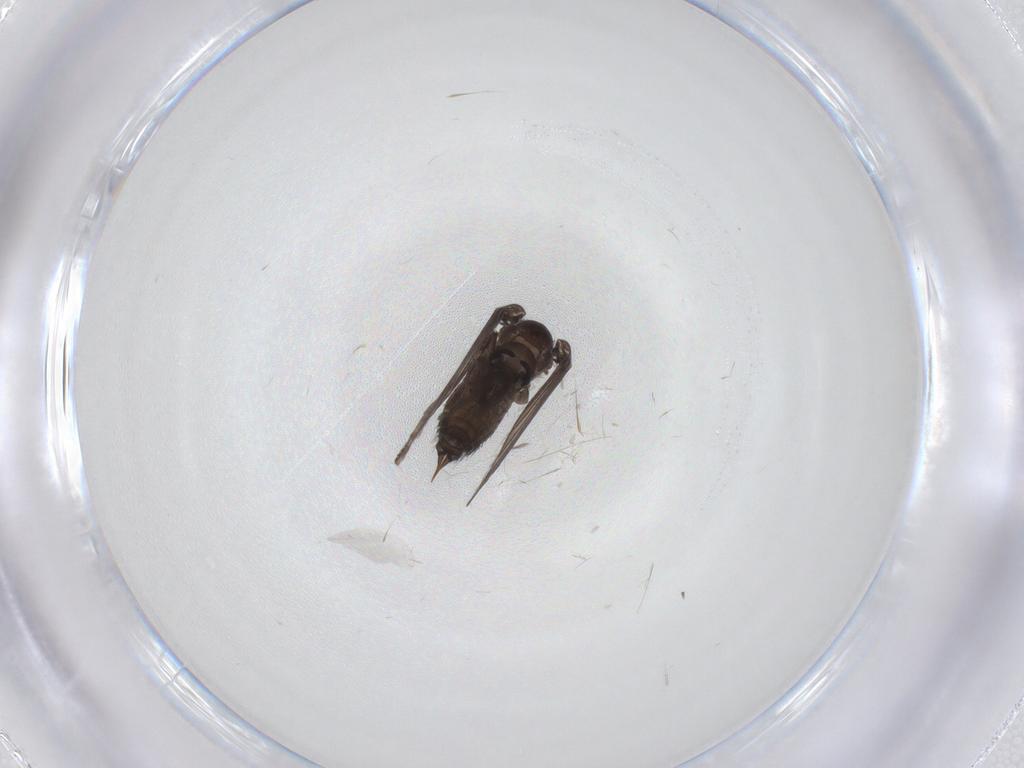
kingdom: Animalia
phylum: Arthropoda
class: Insecta
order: Diptera
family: Cecidomyiidae
